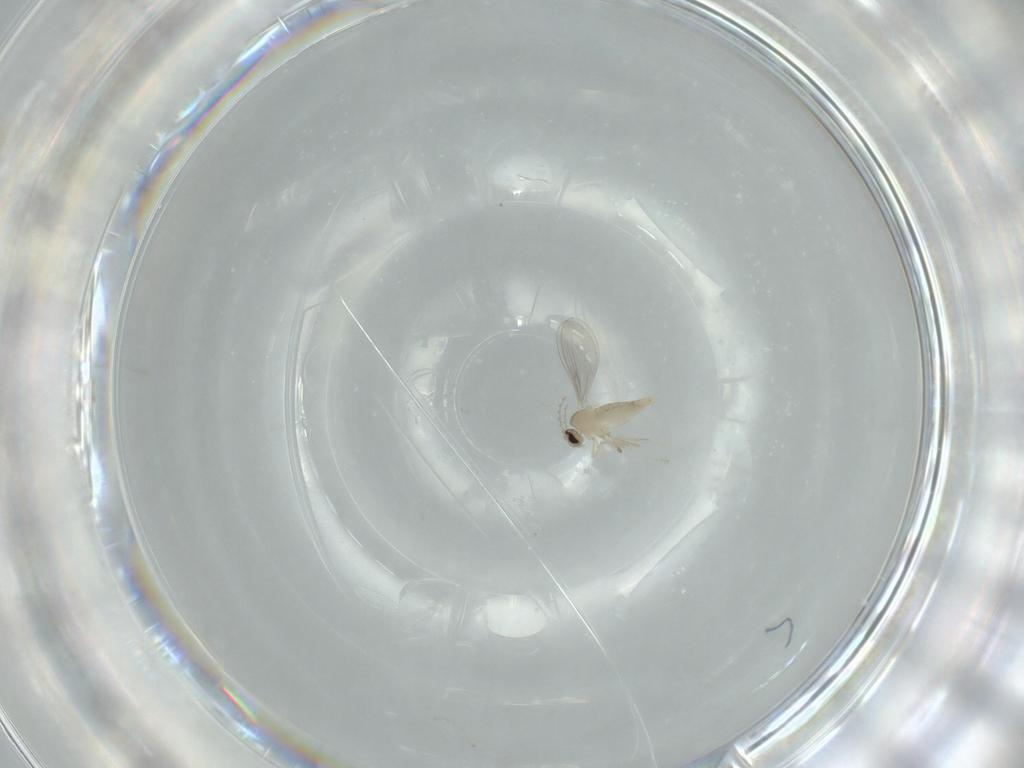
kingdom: Animalia
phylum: Arthropoda
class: Insecta
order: Diptera
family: Cecidomyiidae
